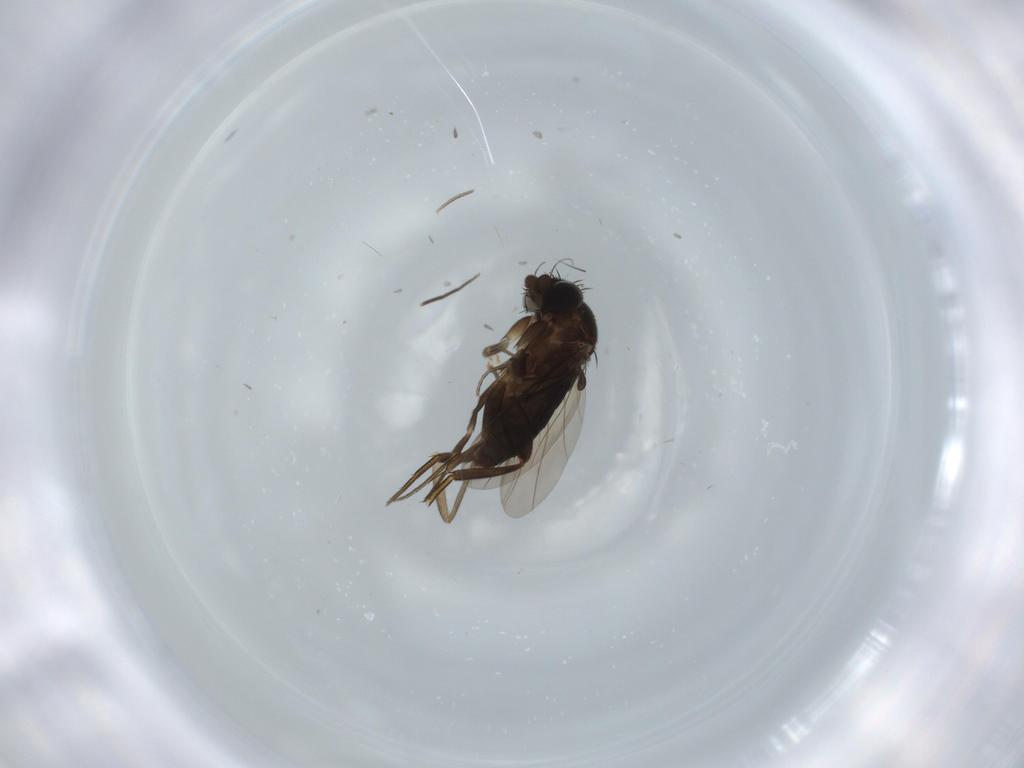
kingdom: Animalia
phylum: Arthropoda
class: Insecta
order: Diptera
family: Phoridae
